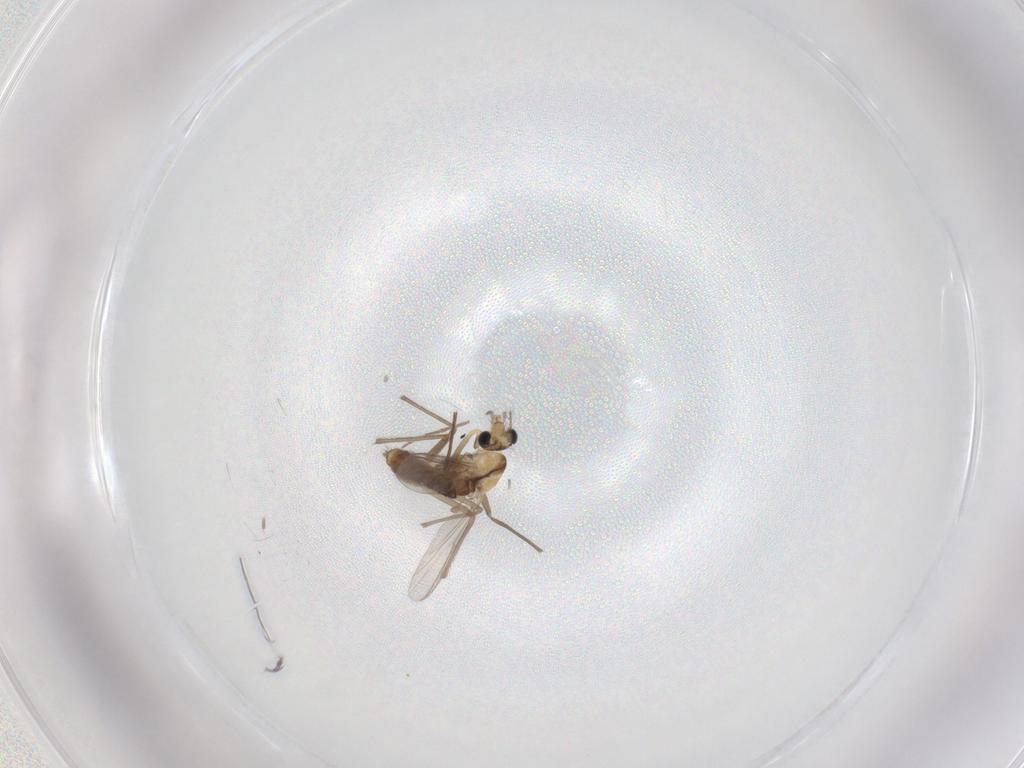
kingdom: Animalia
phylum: Arthropoda
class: Insecta
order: Diptera
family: Chironomidae
